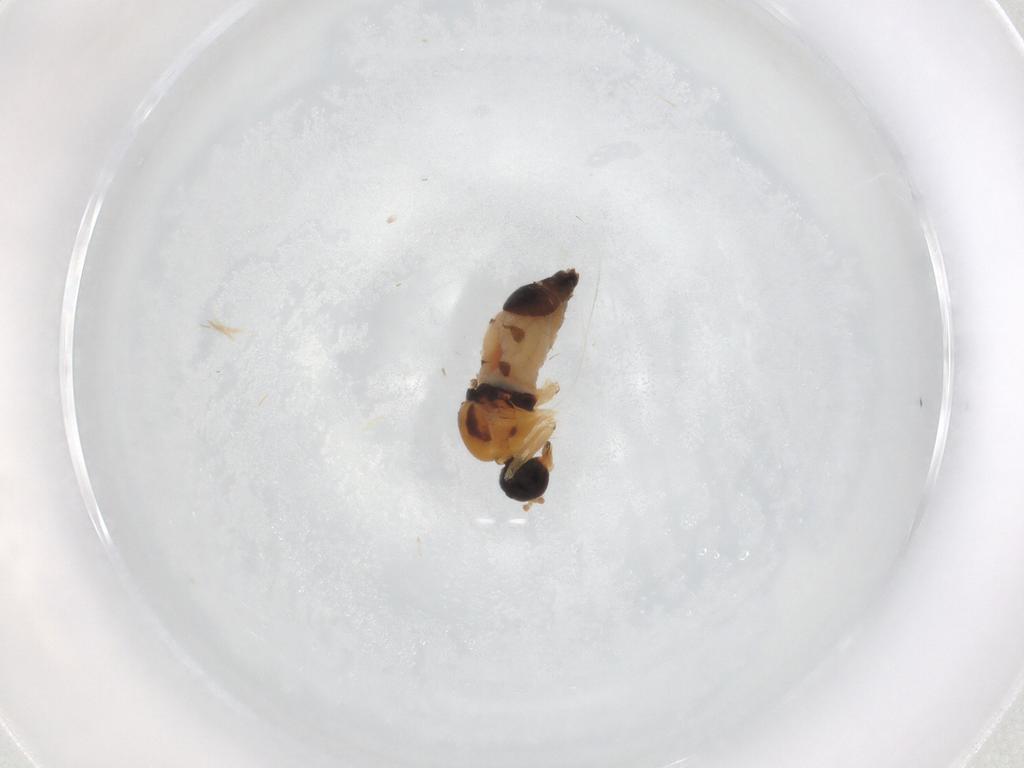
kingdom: Animalia
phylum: Arthropoda
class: Insecta
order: Diptera
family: Hybotidae
